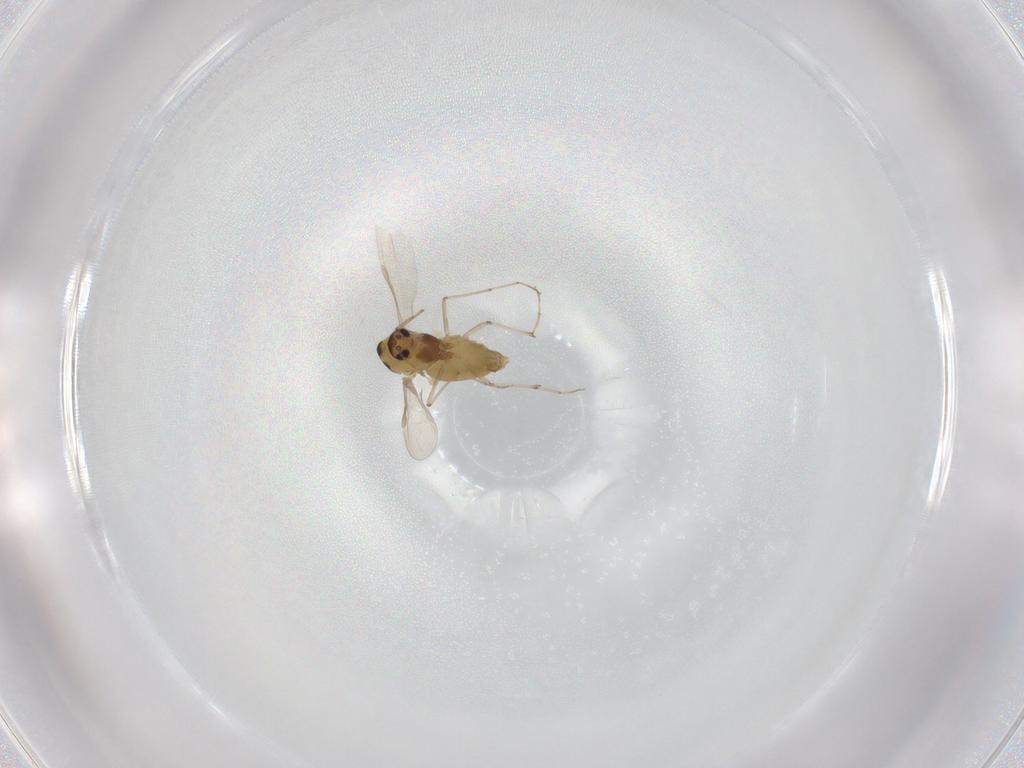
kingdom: Animalia
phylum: Arthropoda
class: Insecta
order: Diptera
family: Chironomidae
